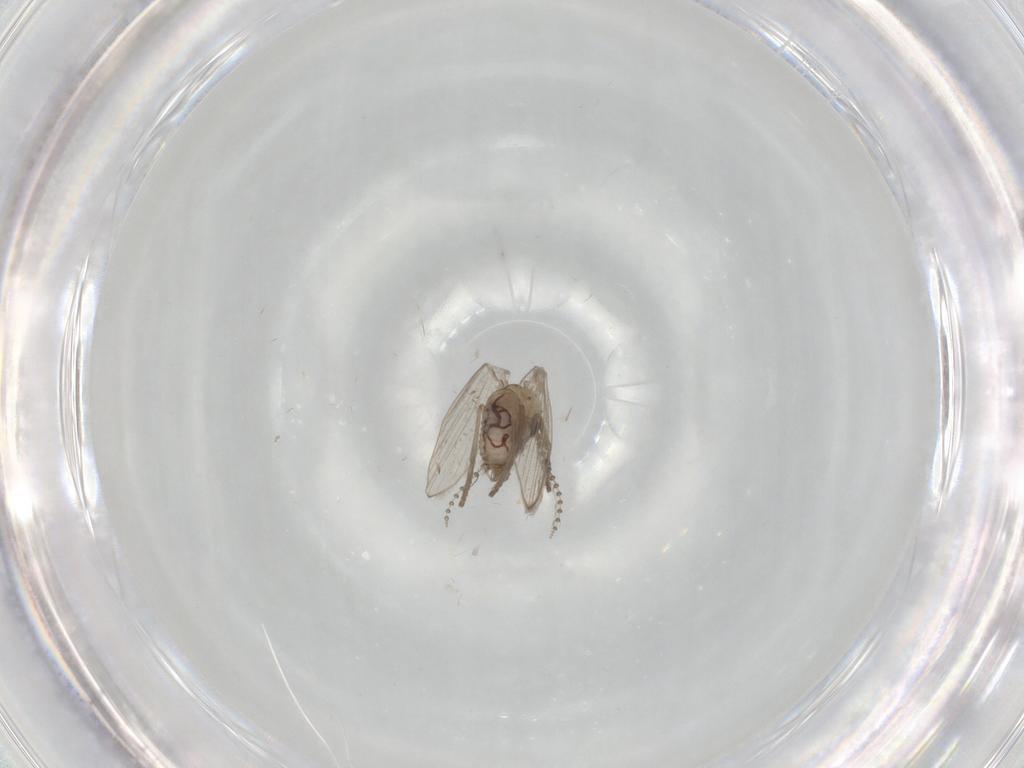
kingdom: Animalia
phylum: Arthropoda
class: Insecta
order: Diptera
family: Psychodidae
